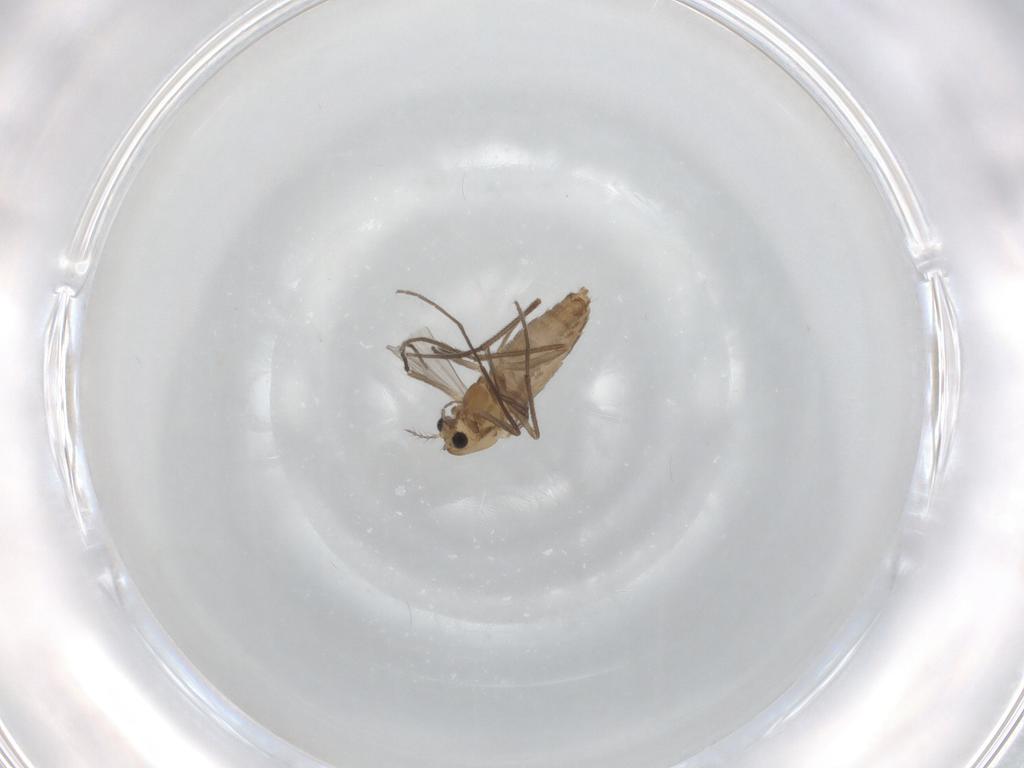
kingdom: Animalia
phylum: Arthropoda
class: Insecta
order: Diptera
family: Chironomidae
